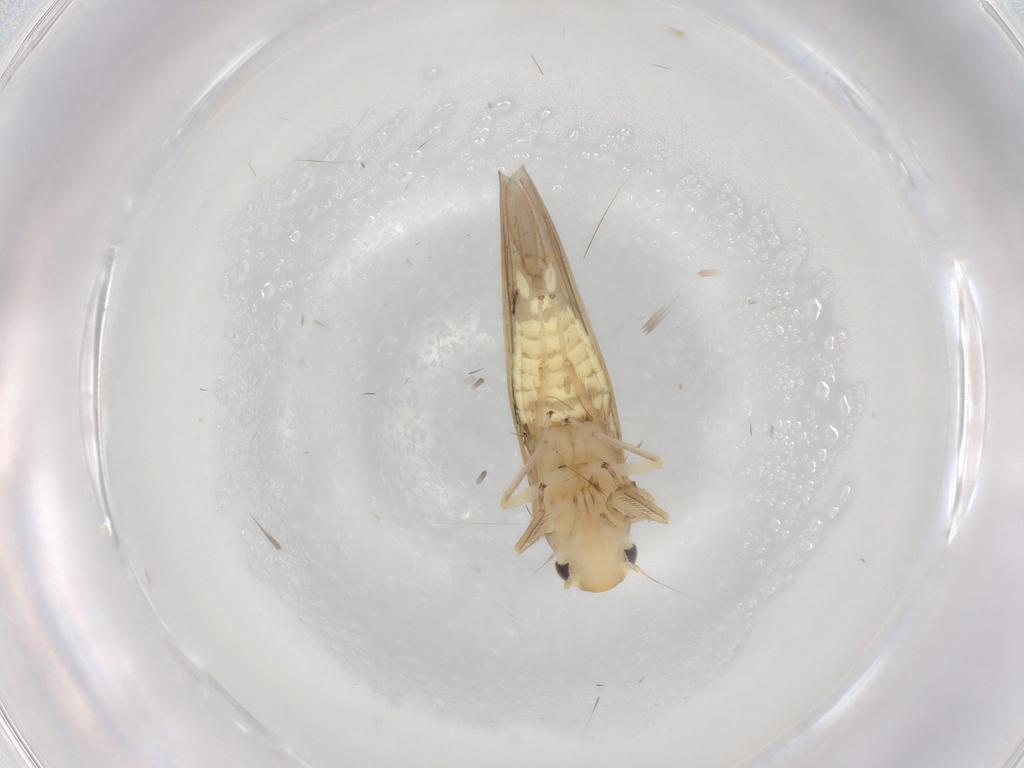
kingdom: Animalia
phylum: Arthropoda
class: Insecta
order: Hemiptera
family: Cicadellidae
